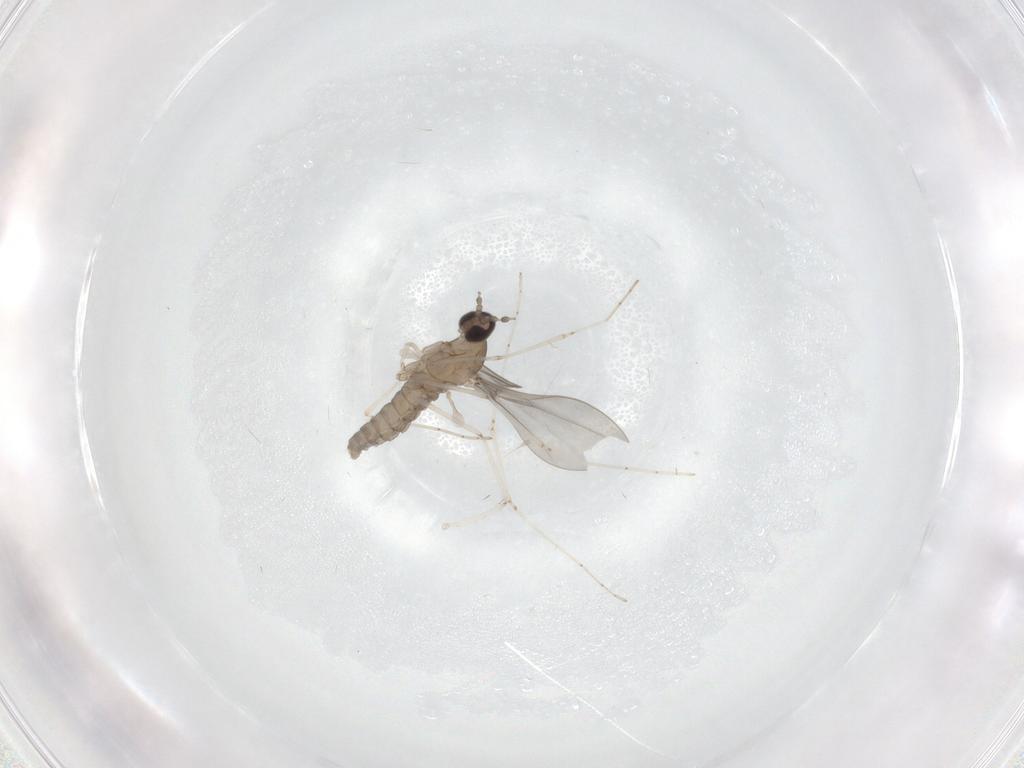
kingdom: Animalia
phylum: Arthropoda
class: Insecta
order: Diptera
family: Cecidomyiidae
